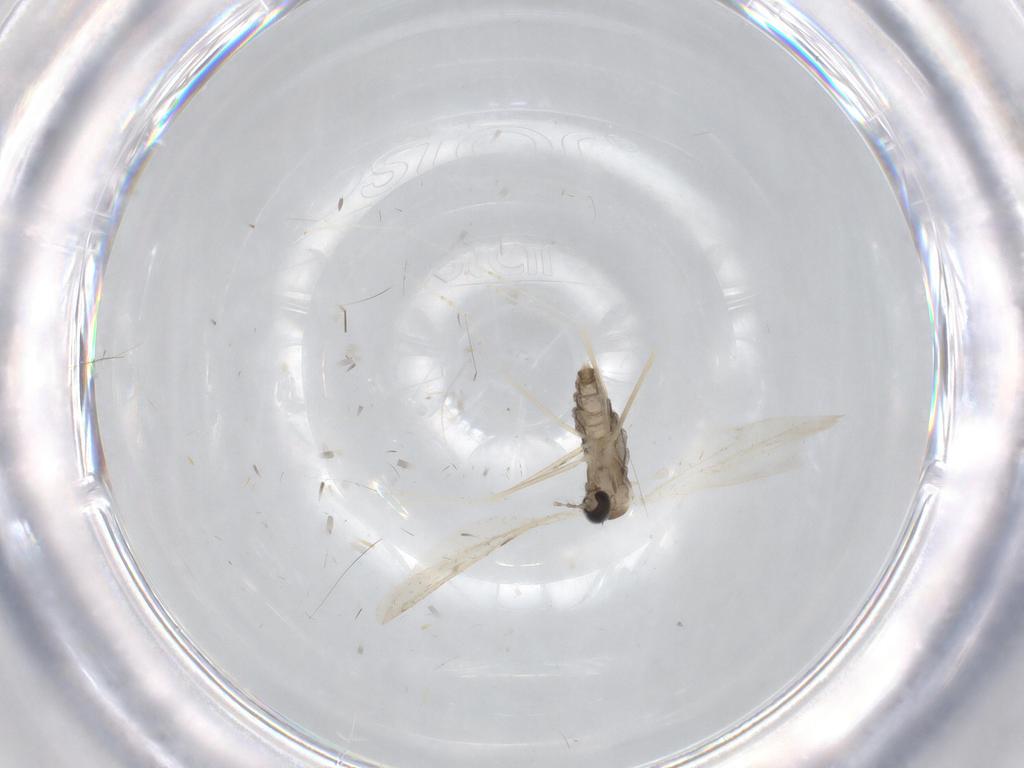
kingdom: Animalia
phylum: Arthropoda
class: Insecta
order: Diptera
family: Cecidomyiidae
